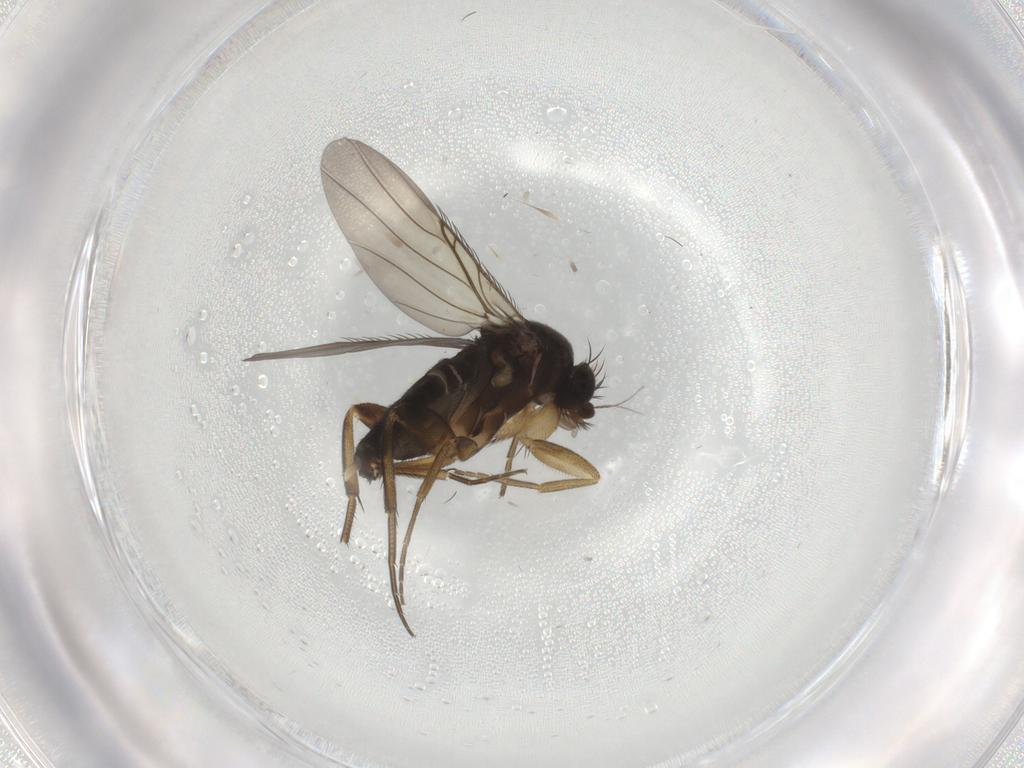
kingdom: Animalia
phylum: Arthropoda
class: Insecta
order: Diptera
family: Phoridae
